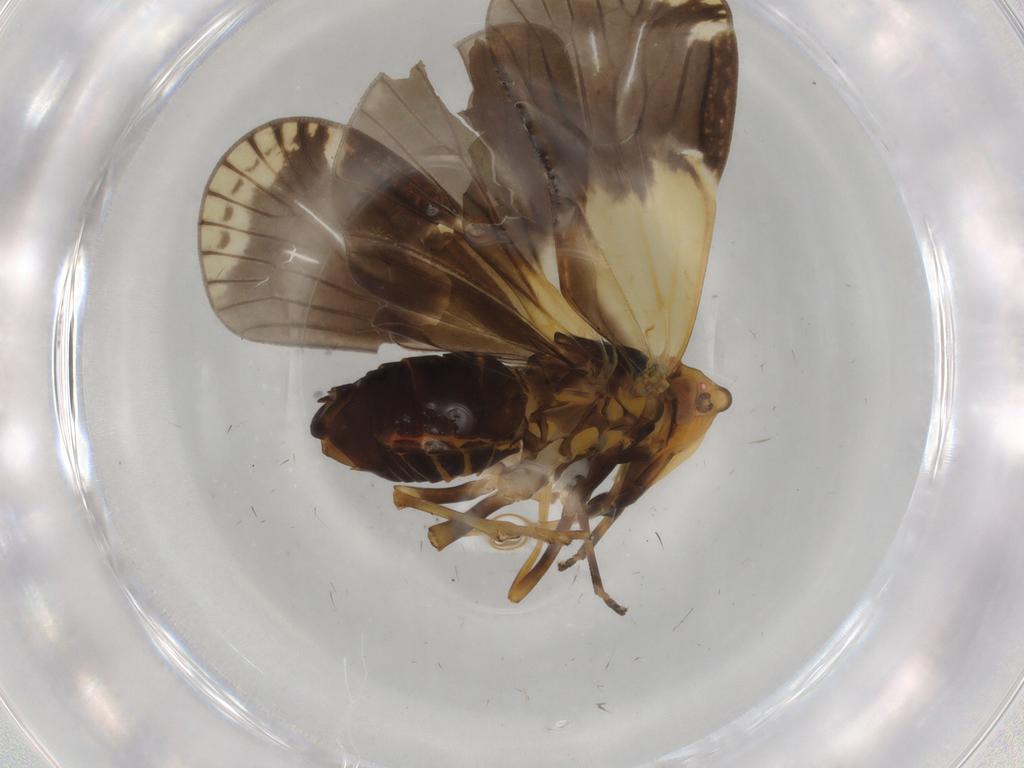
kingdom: Animalia
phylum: Arthropoda
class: Insecta
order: Hemiptera
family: Cixiidae
